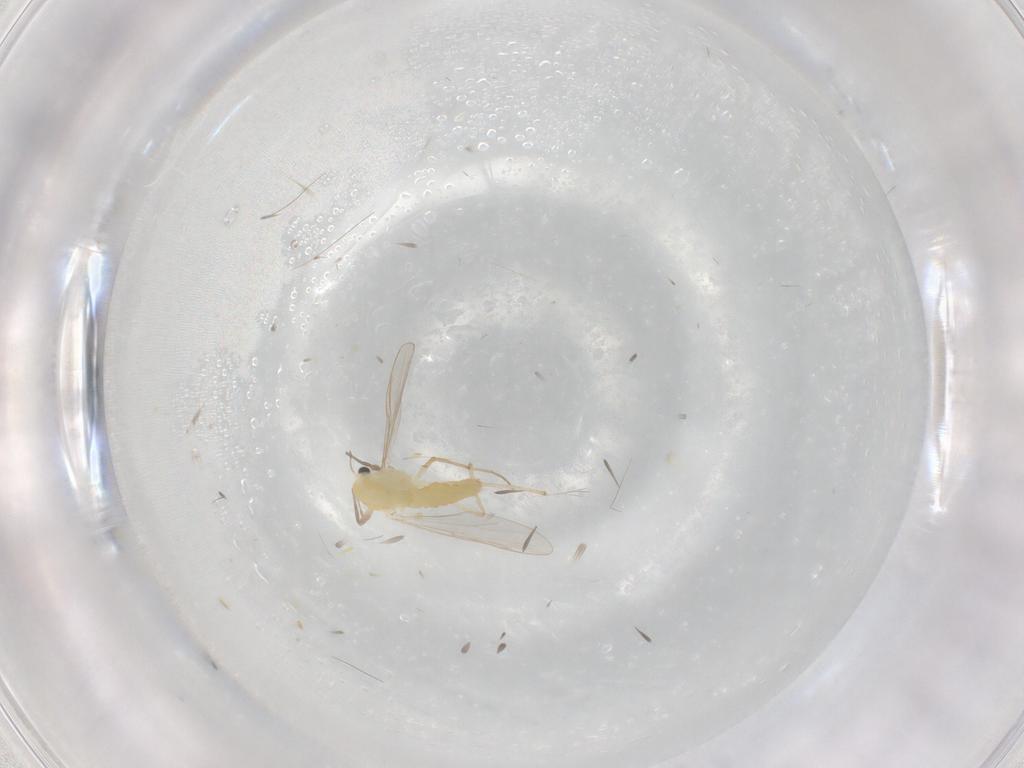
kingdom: Animalia
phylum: Arthropoda
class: Insecta
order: Diptera
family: Chironomidae
